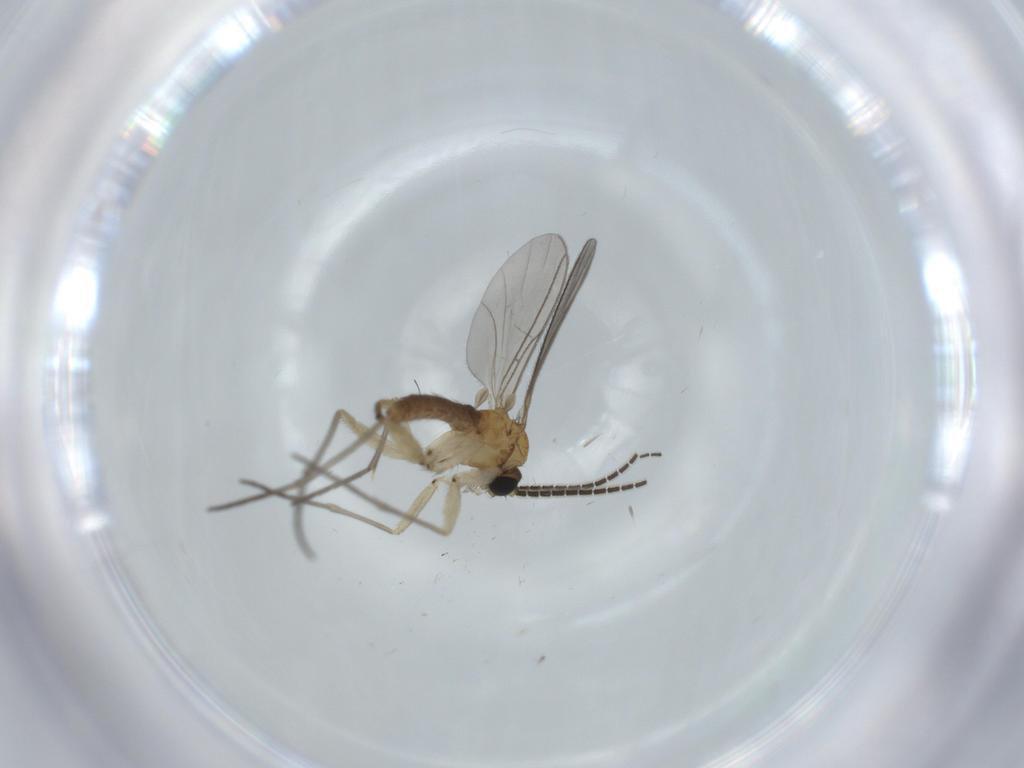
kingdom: Animalia
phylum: Arthropoda
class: Insecta
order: Diptera
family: Sciaridae
